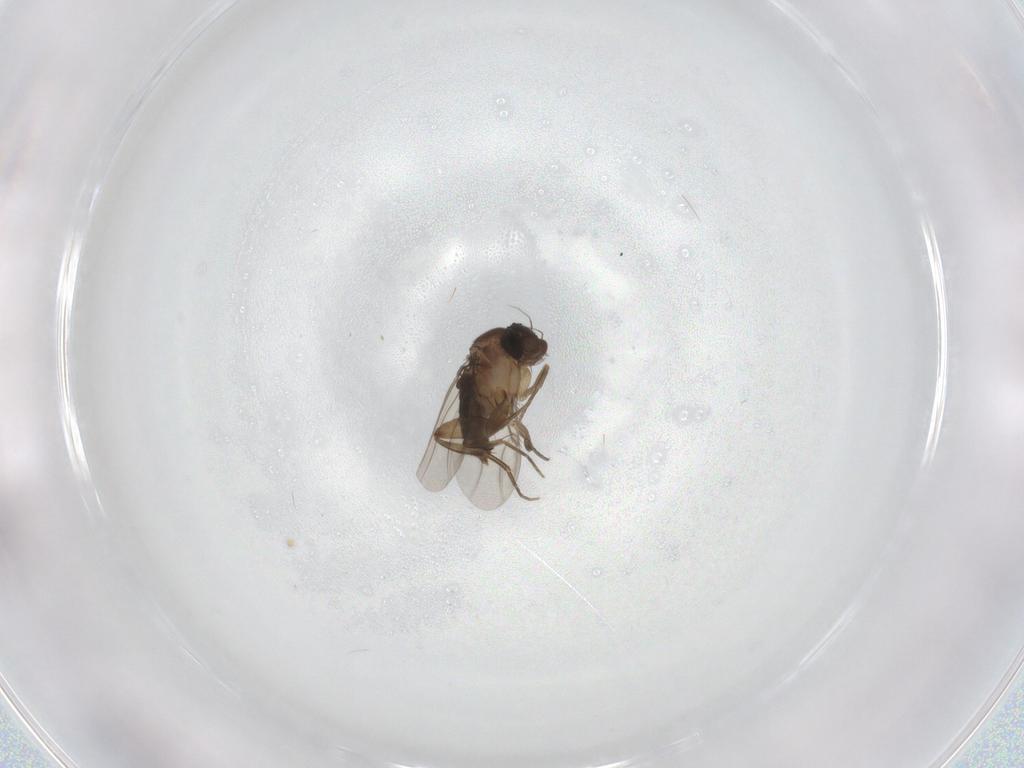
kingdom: Animalia
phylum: Arthropoda
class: Insecta
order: Diptera
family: Phoridae
